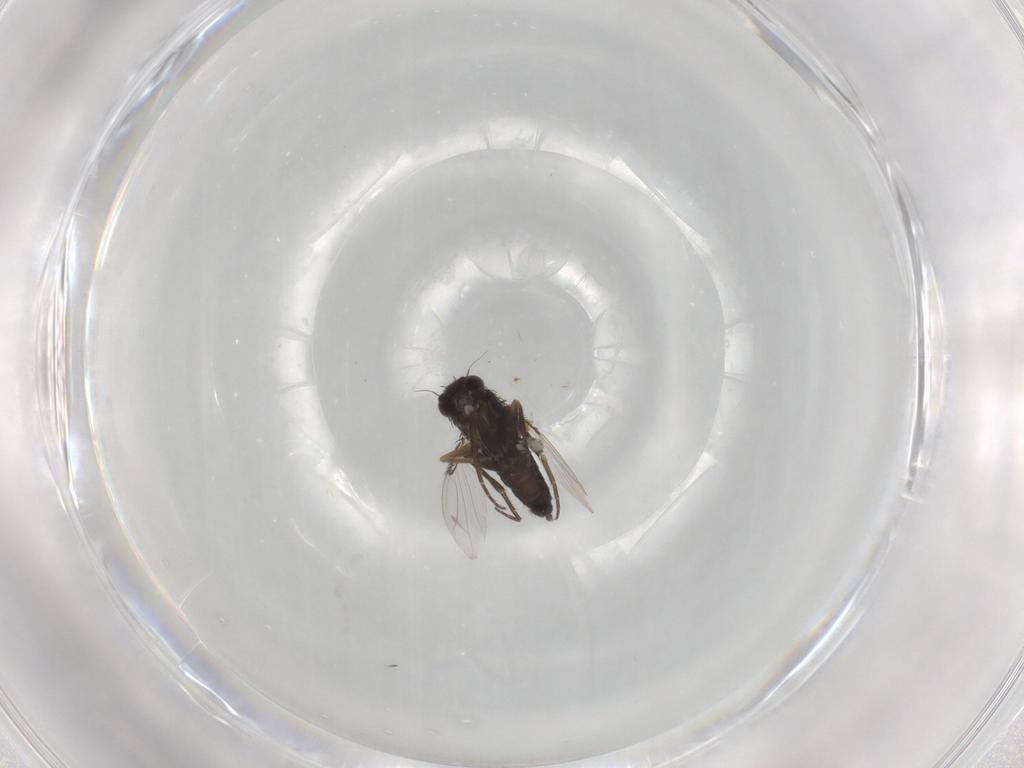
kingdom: Animalia
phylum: Arthropoda
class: Insecta
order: Diptera
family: Phoridae
